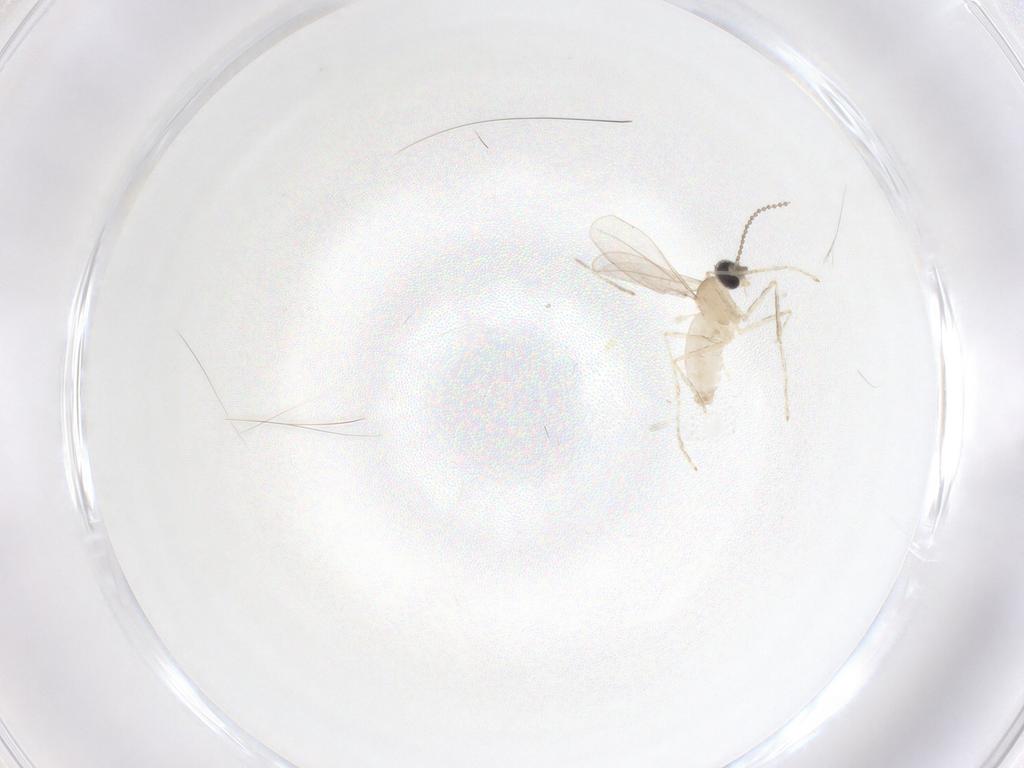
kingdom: Animalia
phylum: Arthropoda
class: Insecta
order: Diptera
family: Cecidomyiidae
